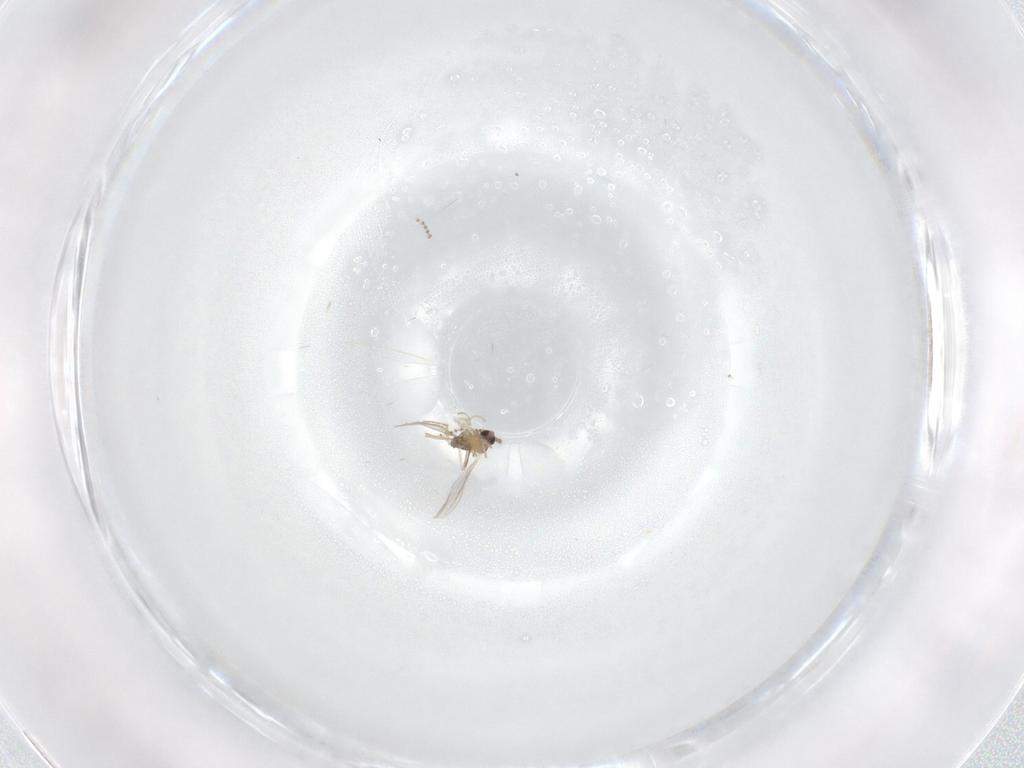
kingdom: Animalia
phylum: Arthropoda
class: Insecta
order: Diptera
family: Cecidomyiidae
